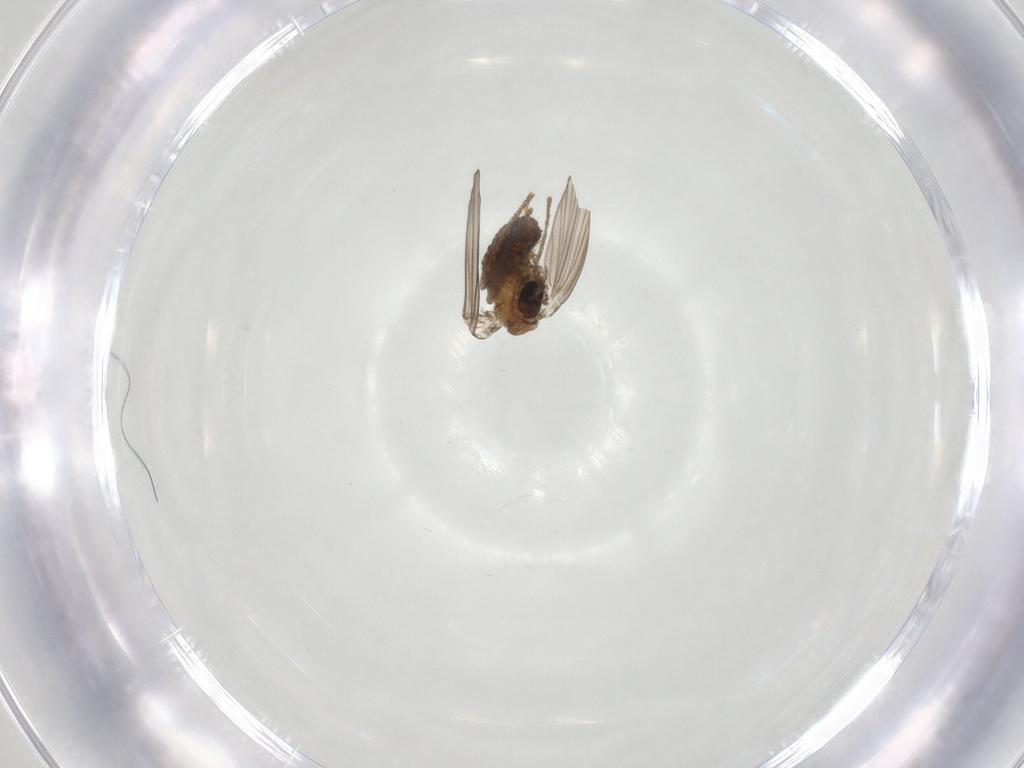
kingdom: Animalia
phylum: Arthropoda
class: Insecta
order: Diptera
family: Psychodidae
